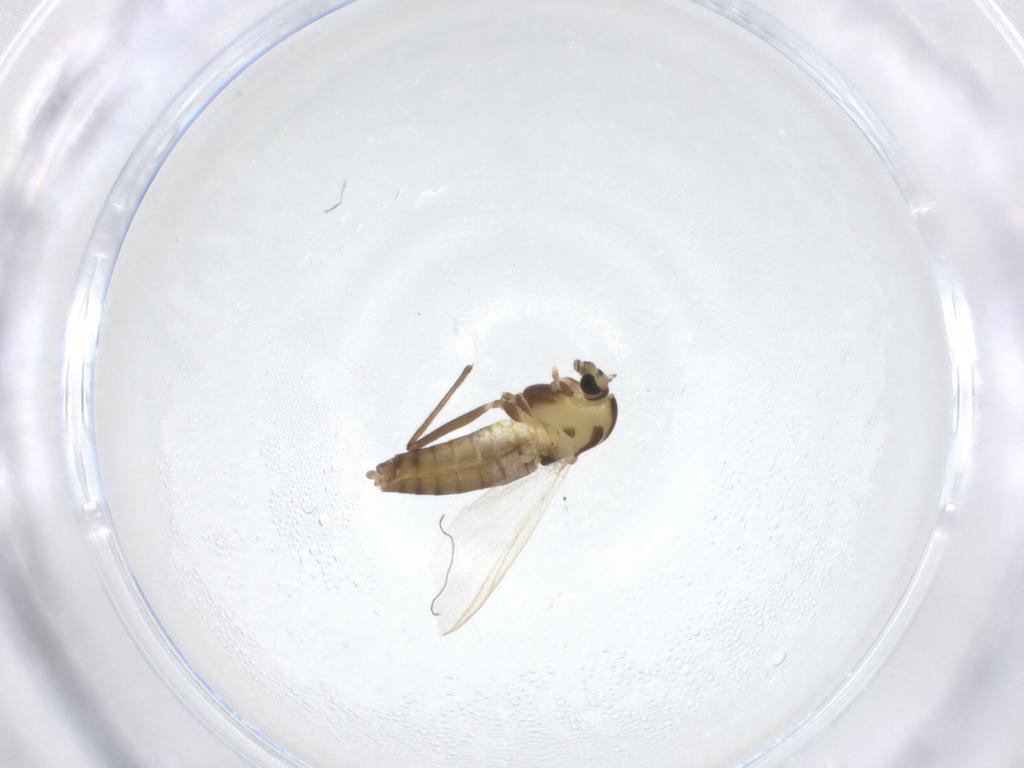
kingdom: Animalia
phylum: Arthropoda
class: Insecta
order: Diptera
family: Chironomidae
